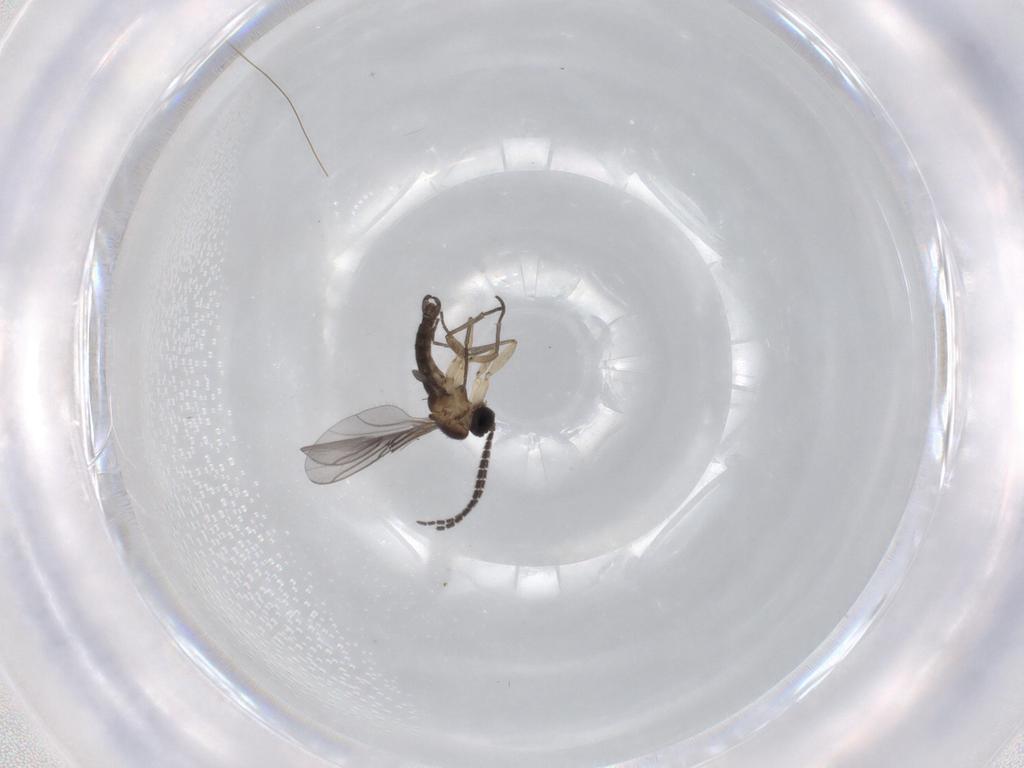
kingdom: Animalia
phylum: Arthropoda
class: Insecta
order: Diptera
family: Sciaridae
